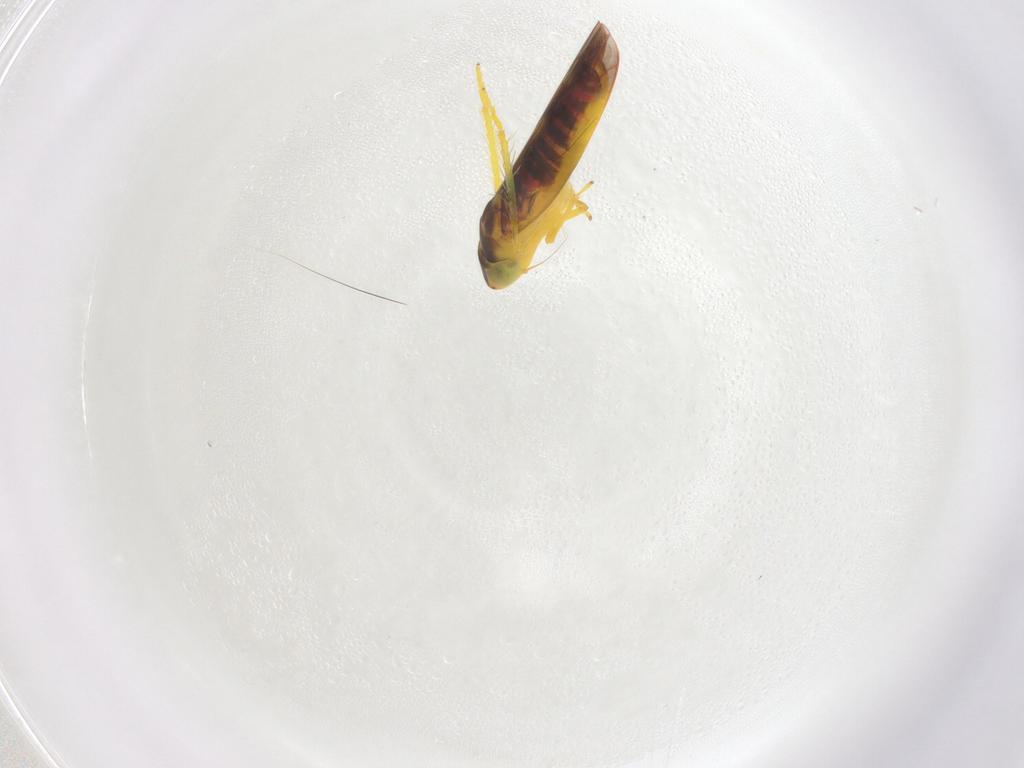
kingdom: Animalia
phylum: Arthropoda
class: Insecta
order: Hemiptera
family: Cicadellidae
